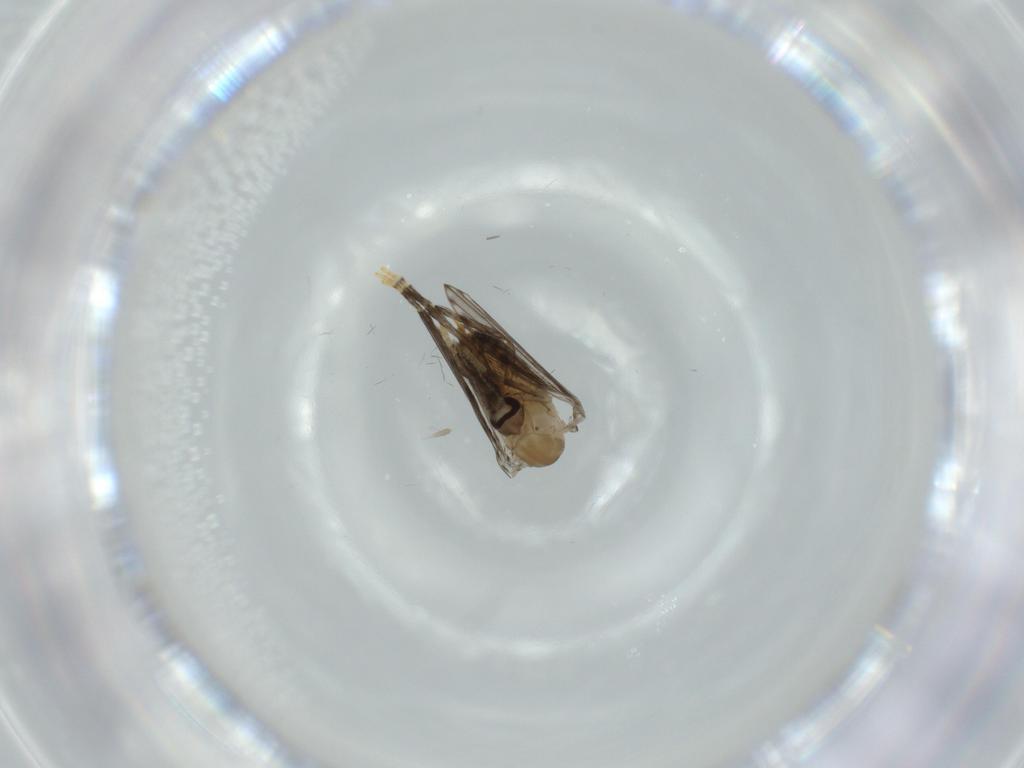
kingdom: Animalia
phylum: Arthropoda
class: Insecta
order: Diptera
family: Psychodidae
